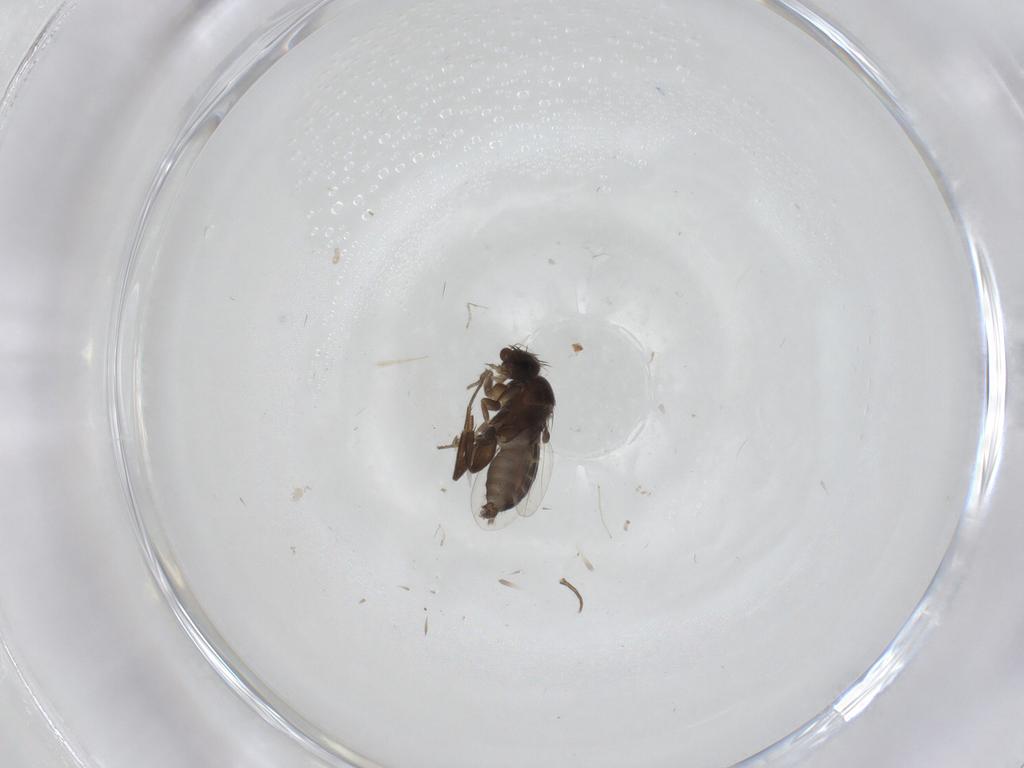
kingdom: Animalia
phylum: Arthropoda
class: Insecta
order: Diptera
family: Phoridae
